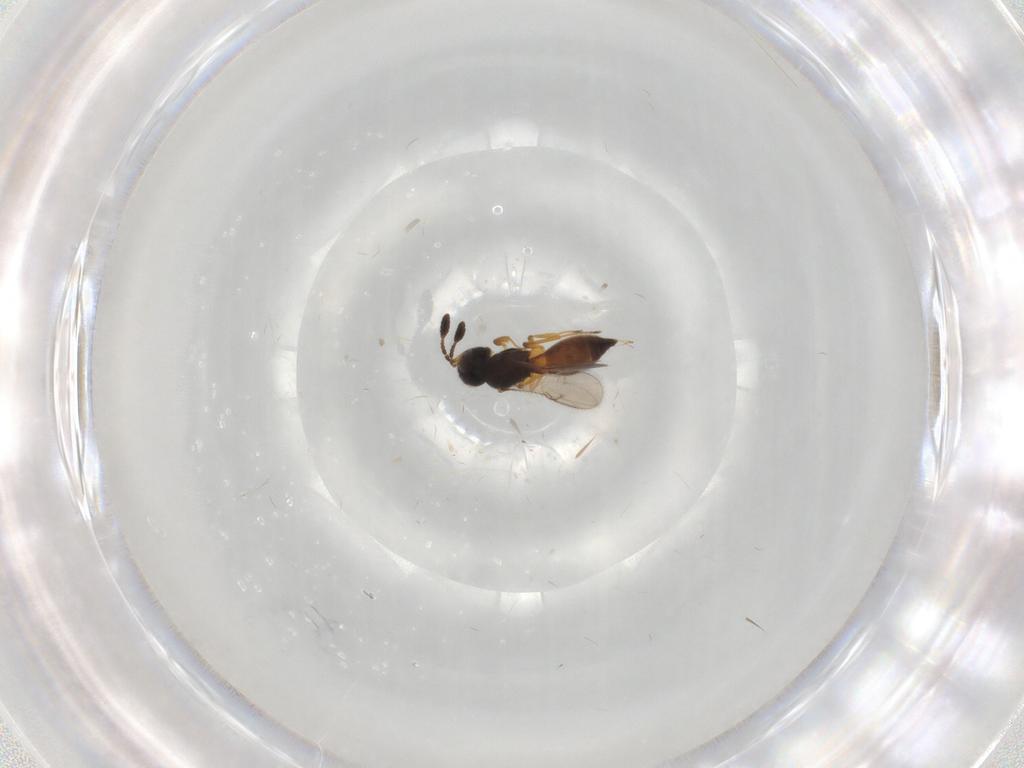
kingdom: Animalia
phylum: Arthropoda
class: Insecta
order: Hymenoptera
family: Scelionidae
